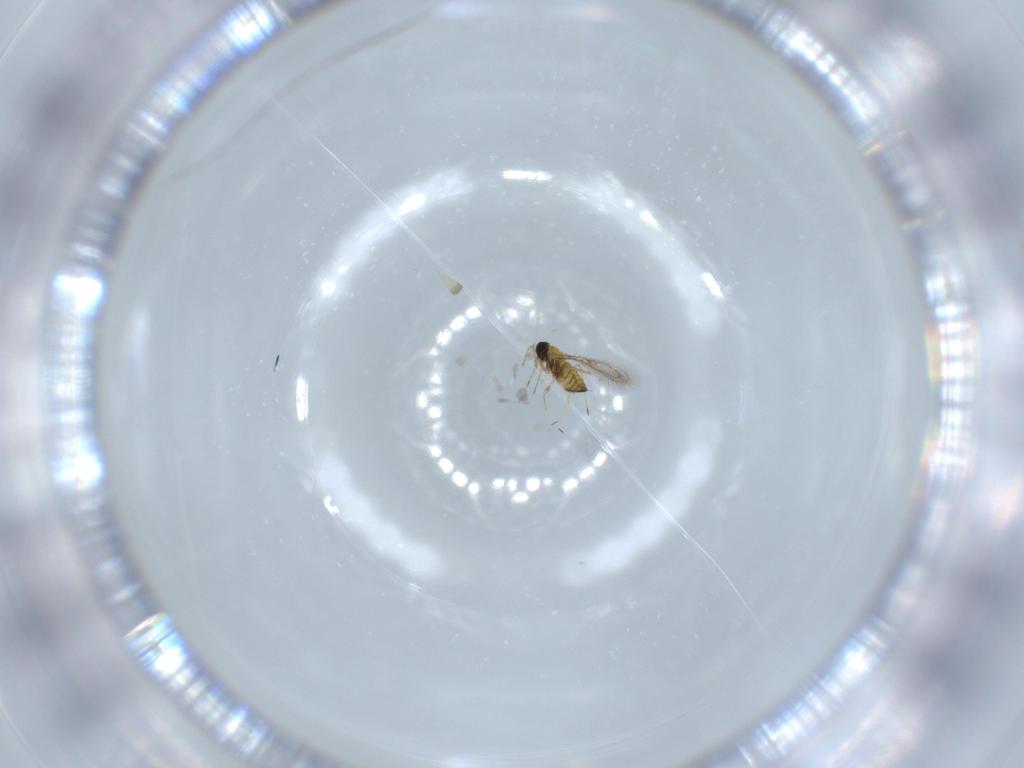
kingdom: Animalia
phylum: Arthropoda
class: Insecta
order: Hymenoptera
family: Trichogrammatidae
